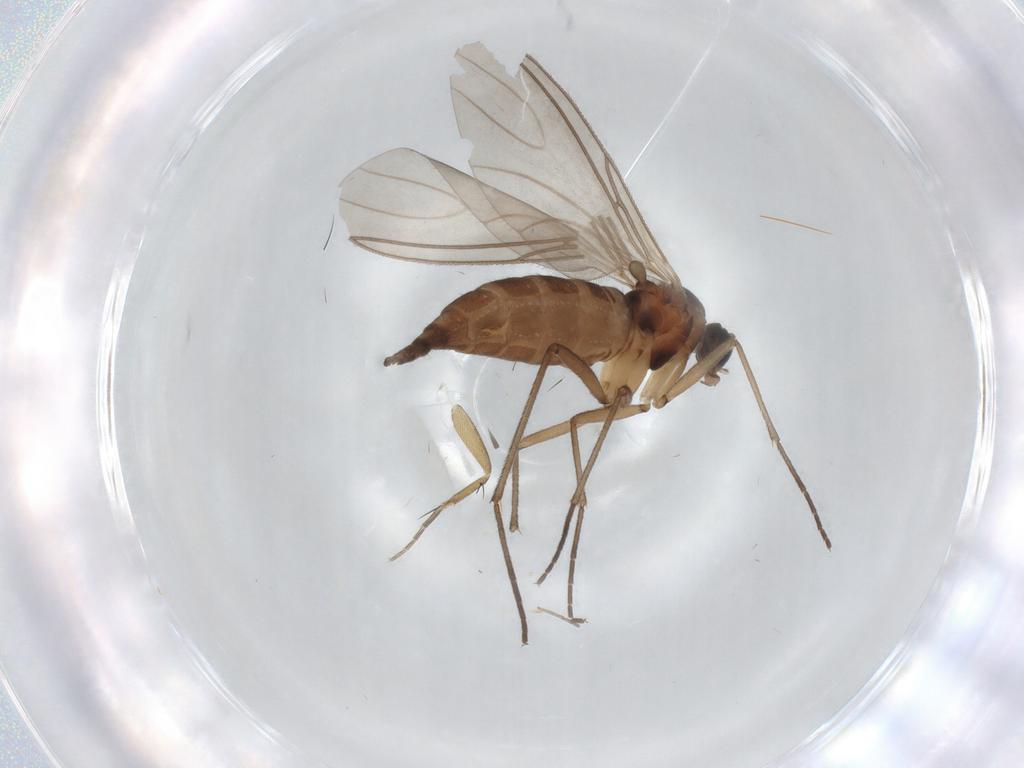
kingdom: Animalia
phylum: Arthropoda
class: Insecta
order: Diptera
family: Sciaridae
